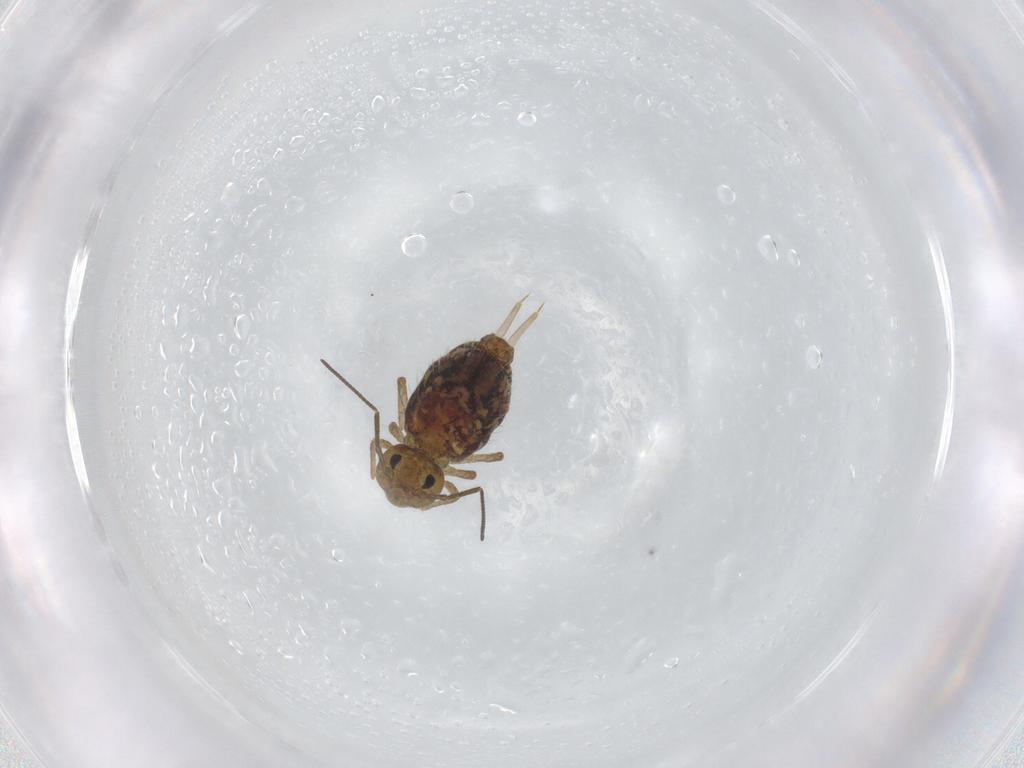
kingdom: Animalia
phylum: Arthropoda
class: Collembola
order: Symphypleona
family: Sminthuridae
